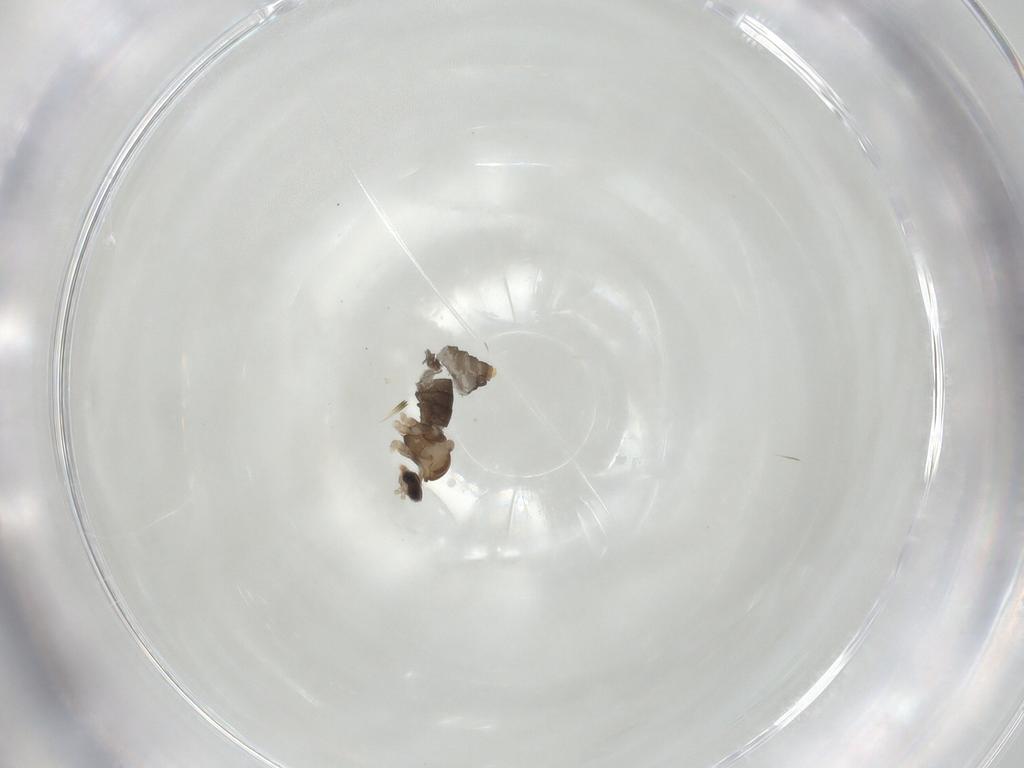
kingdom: Animalia
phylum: Arthropoda
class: Insecta
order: Diptera
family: Cecidomyiidae
